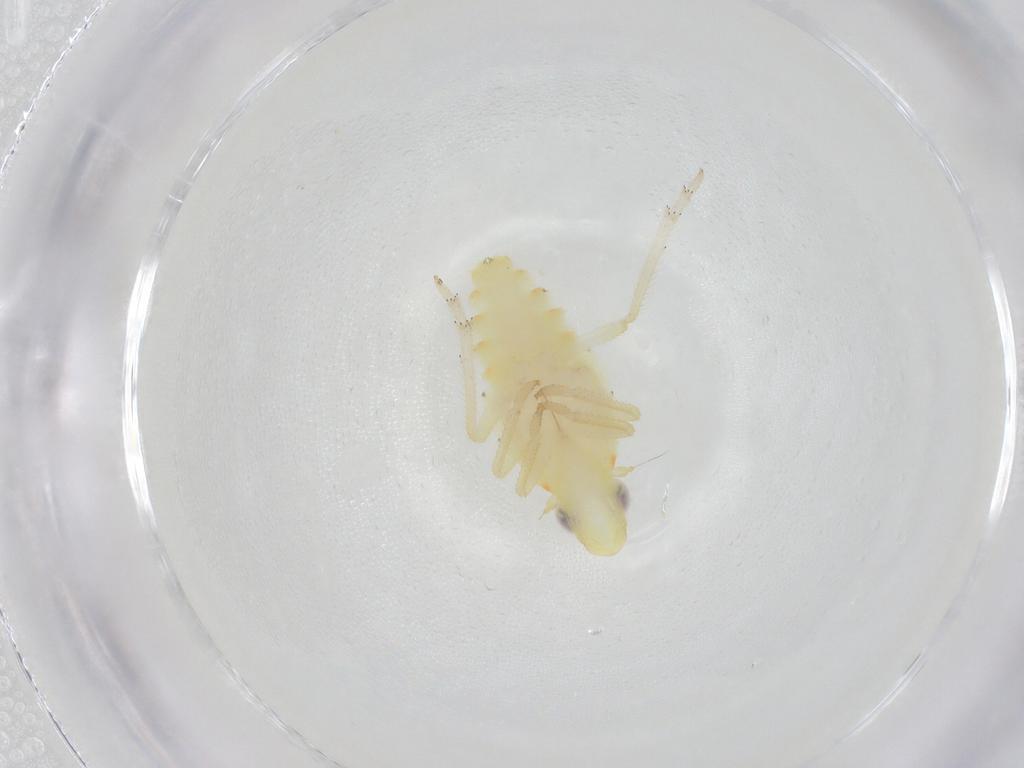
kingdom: Animalia
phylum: Arthropoda
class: Insecta
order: Hemiptera
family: Tropiduchidae
